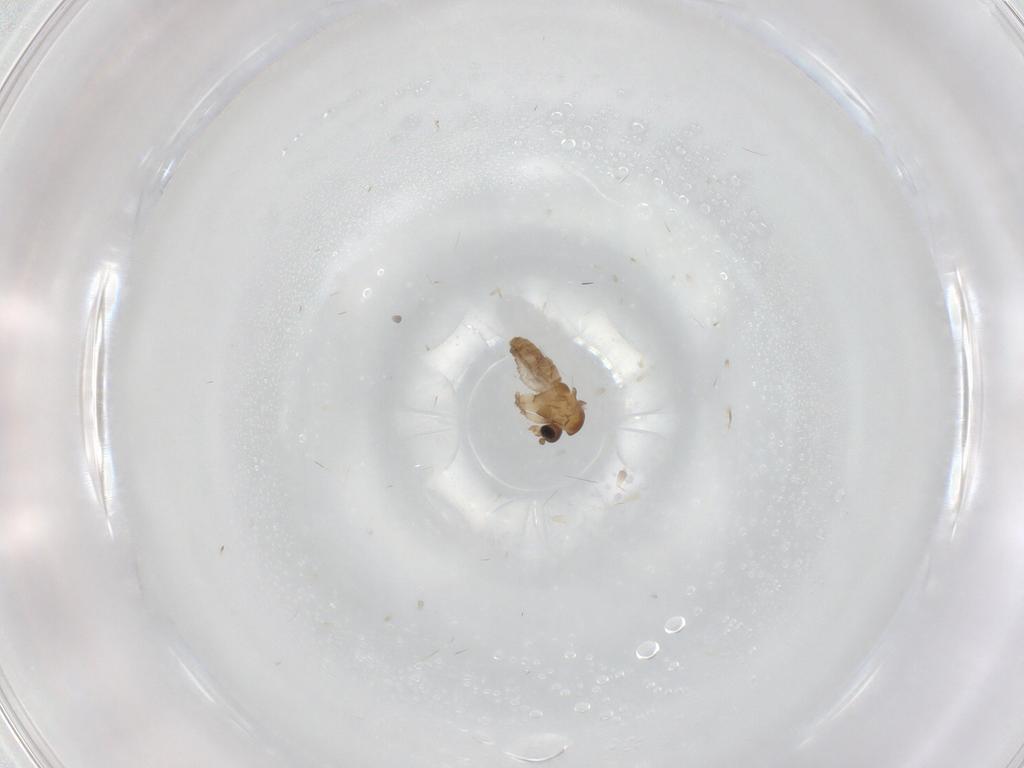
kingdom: Animalia
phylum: Arthropoda
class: Insecta
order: Diptera
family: Psychodidae
